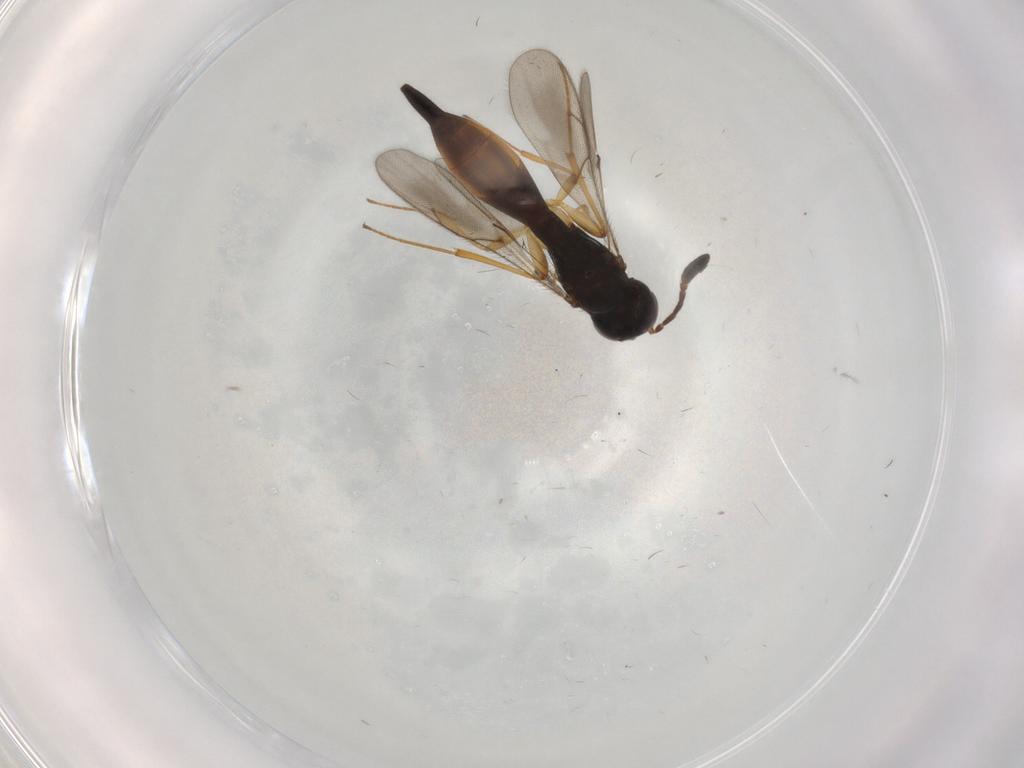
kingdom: Animalia
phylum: Arthropoda
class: Insecta
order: Hymenoptera
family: Scelionidae
